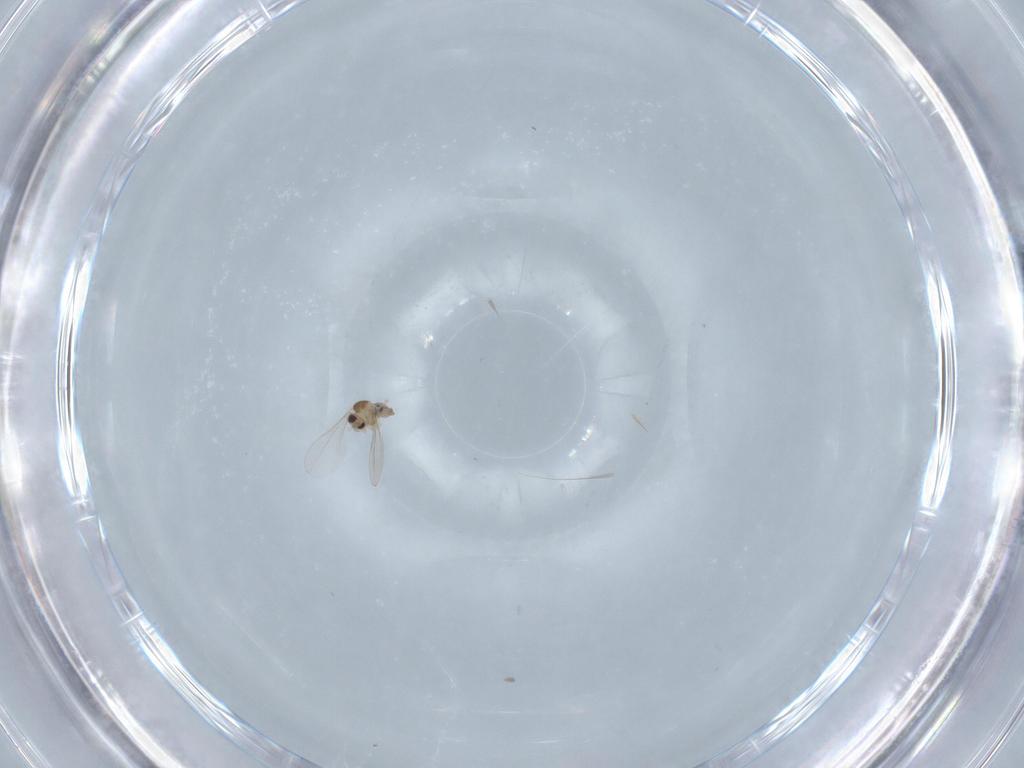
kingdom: Animalia
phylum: Arthropoda
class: Insecta
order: Diptera
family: Cecidomyiidae
